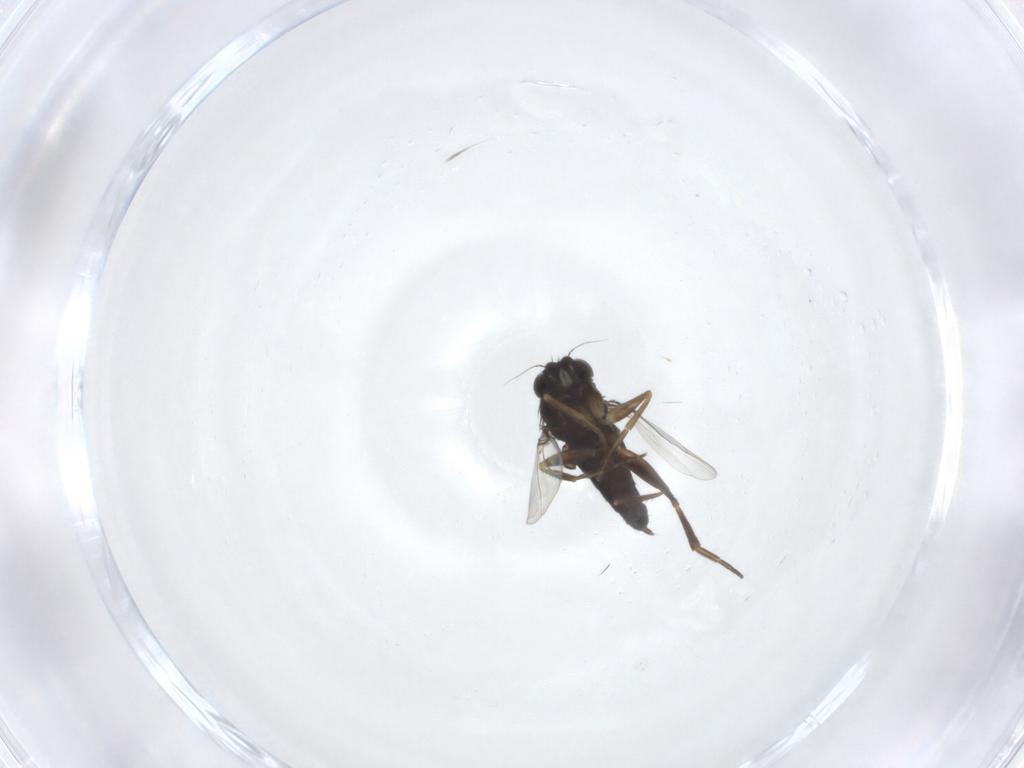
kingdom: Animalia
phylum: Arthropoda
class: Insecta
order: Diptera
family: Phoridae
